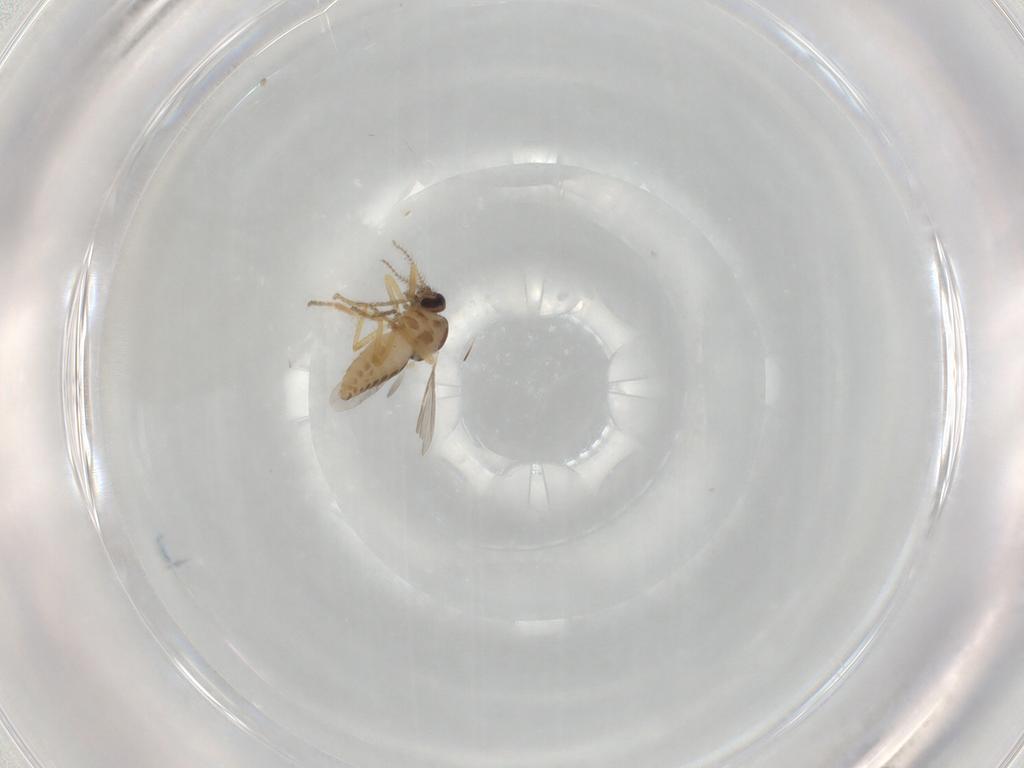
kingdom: Animalia
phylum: Arthropoda
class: Insecta
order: Diptera
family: Ceratopogonidae
